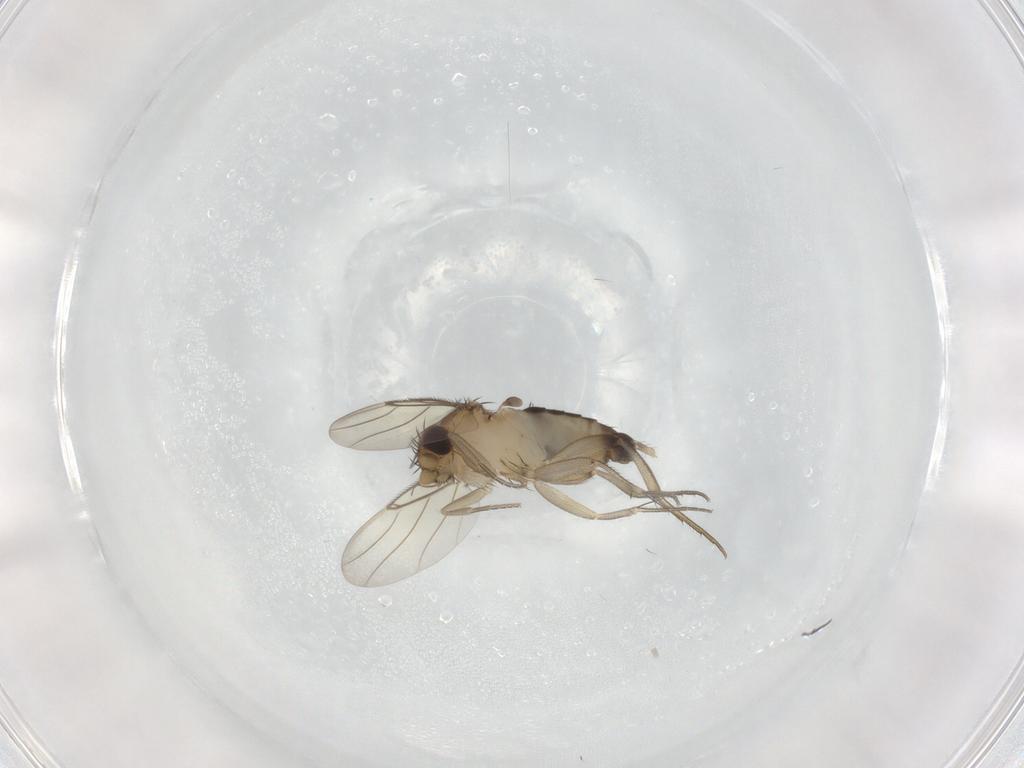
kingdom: Animalia
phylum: Arthropoda
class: Insecta
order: Diptera
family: Phoridae
